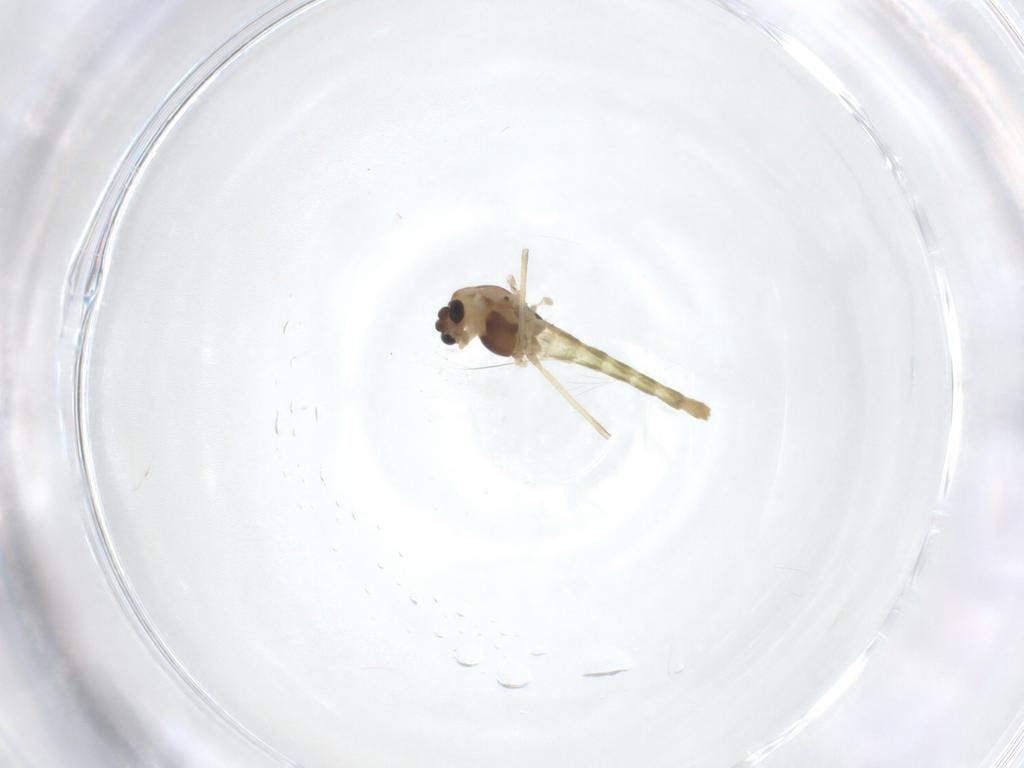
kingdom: Animalia
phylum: Arthropoda
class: Insecta
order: Diptera
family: Chironomidae
